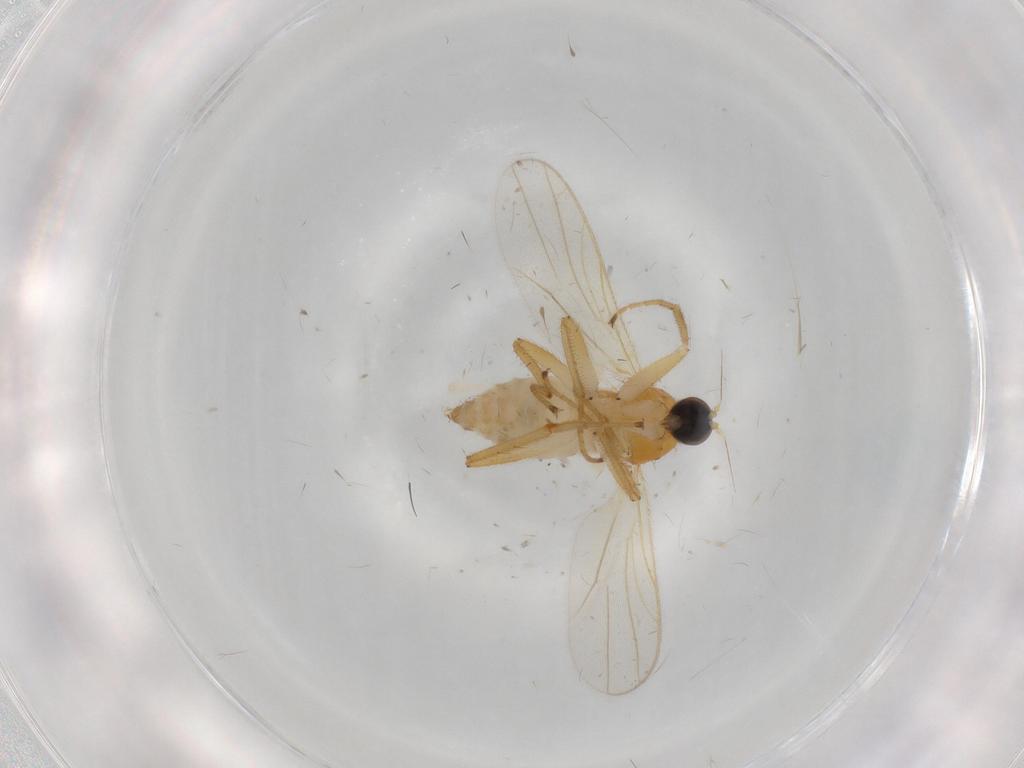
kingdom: Animalia
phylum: Arthropoda
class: Insecta
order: Diptera
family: Hybotidae
